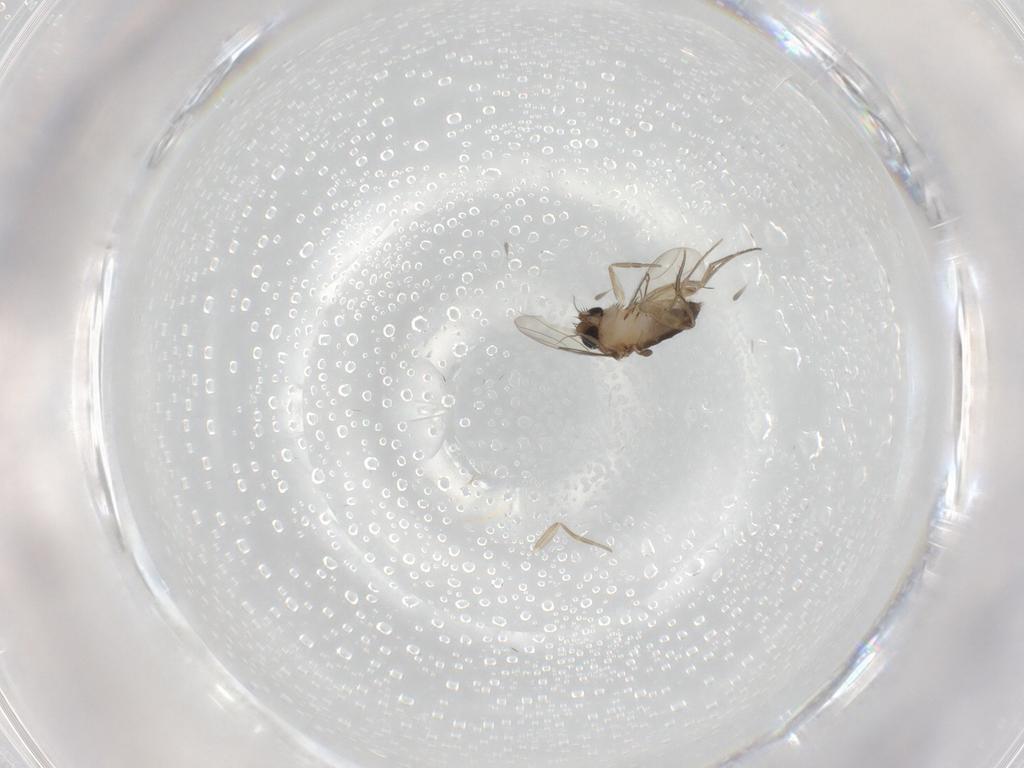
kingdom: Animalia
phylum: Arthropoda
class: Insecta
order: Diptera
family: Phoridae
